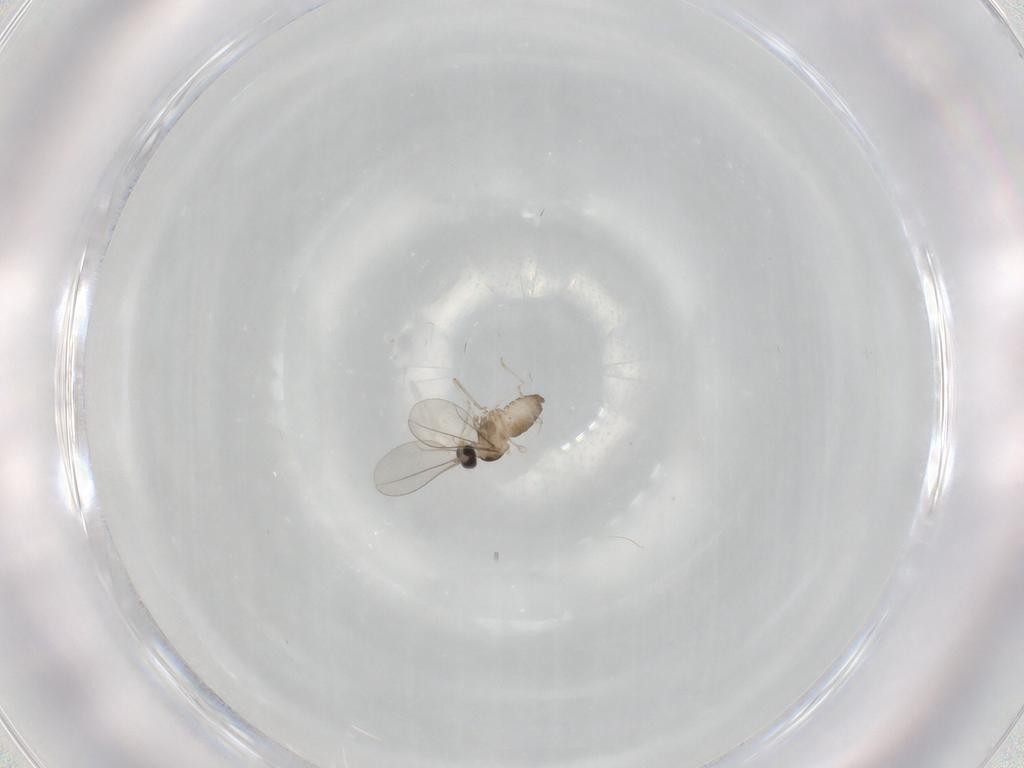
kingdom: Animalia
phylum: Arthropoda
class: Insecta
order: Diptera
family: Cecidomyiidae
